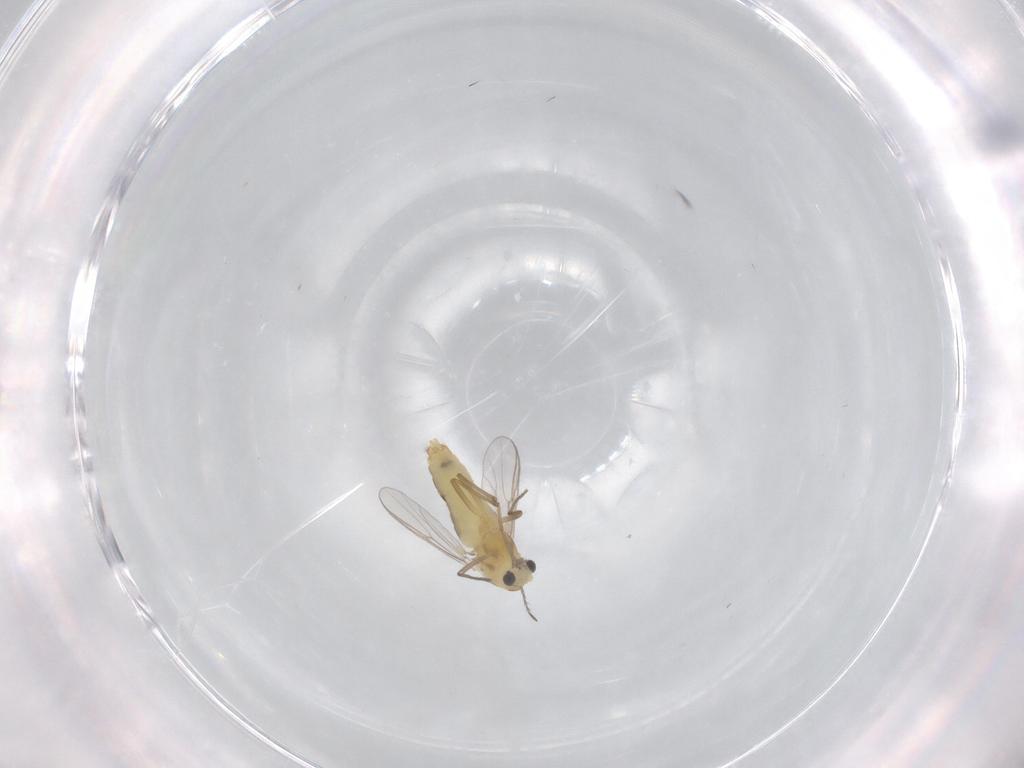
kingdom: Animalia
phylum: Arthropoda
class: Insecta
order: Diptera
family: Chironomidae
